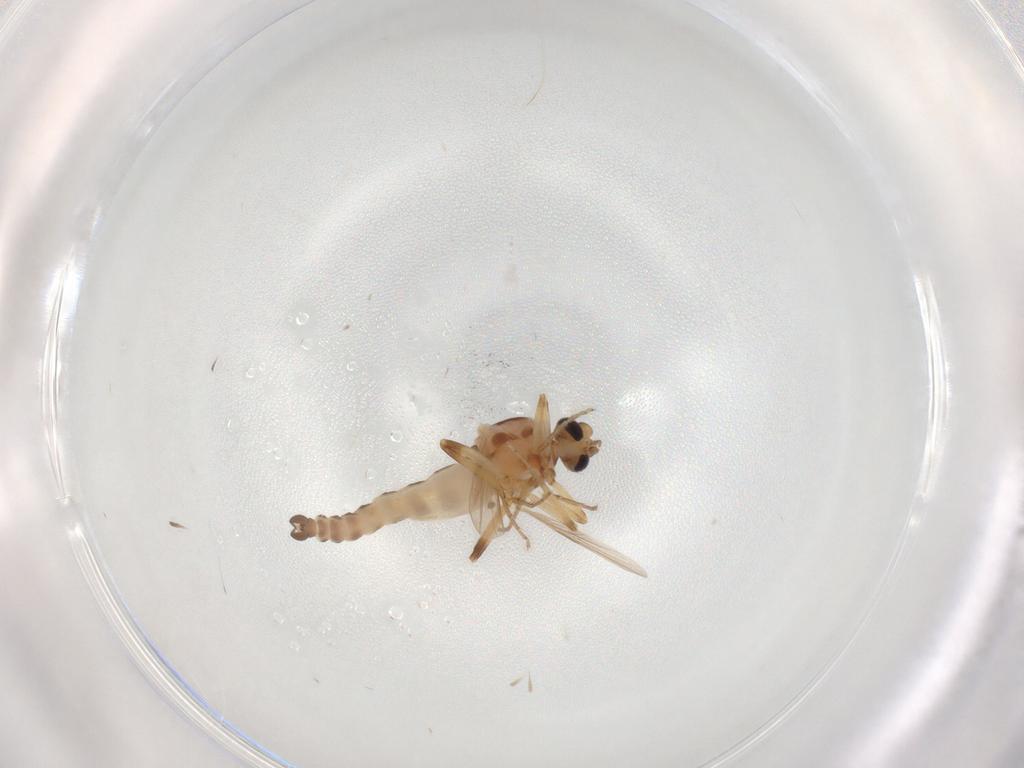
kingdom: Animalia
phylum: Arthropoda
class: Insecta
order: Diptera
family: Ceratopogonidae
